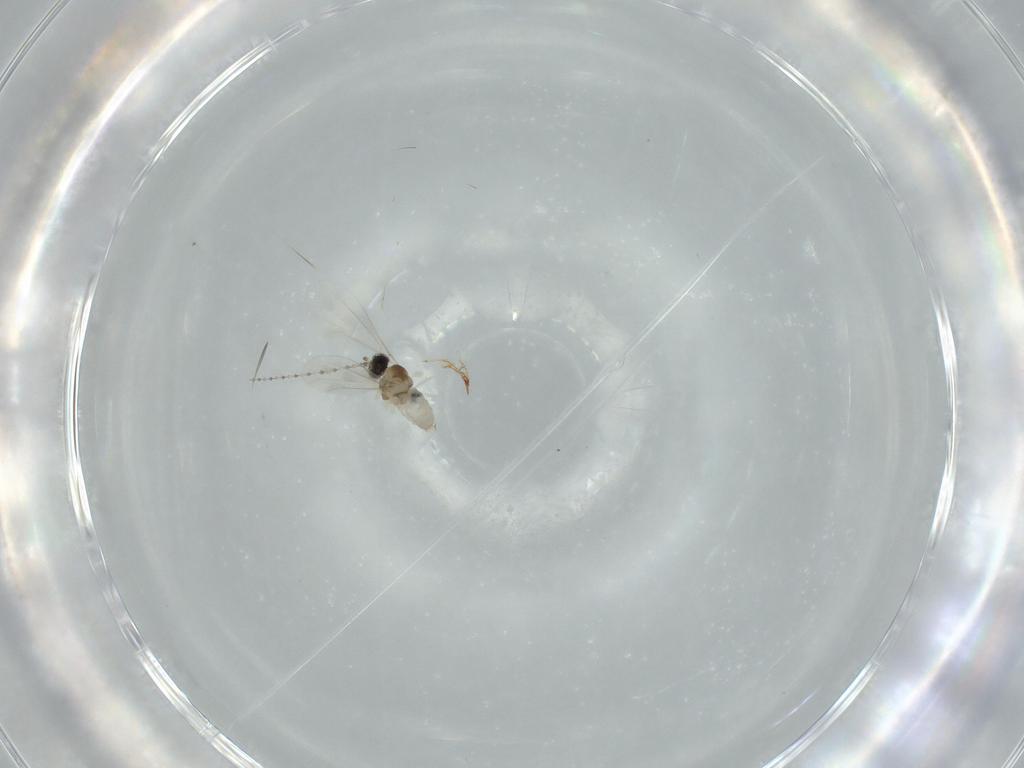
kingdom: Animalia
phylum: Arthropoda
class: Insecta
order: Diptera
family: Cecidomyiidae
